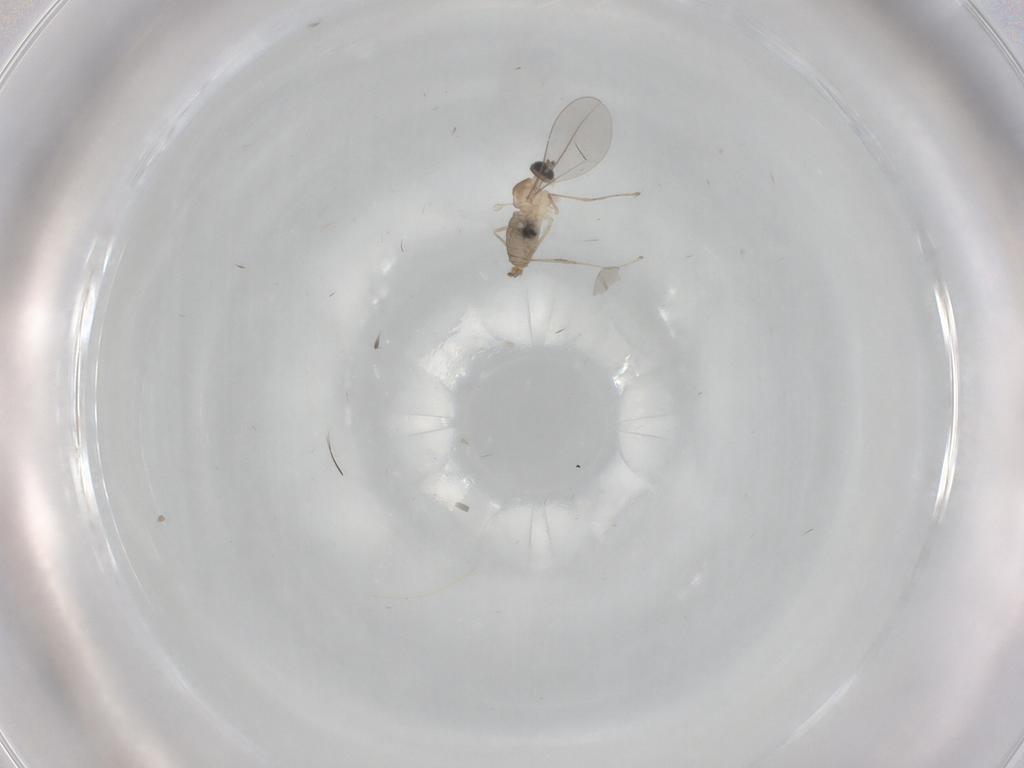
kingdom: Animalia
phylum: Arthropoda
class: Insecta
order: Diptera
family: Cecidomyiidae
